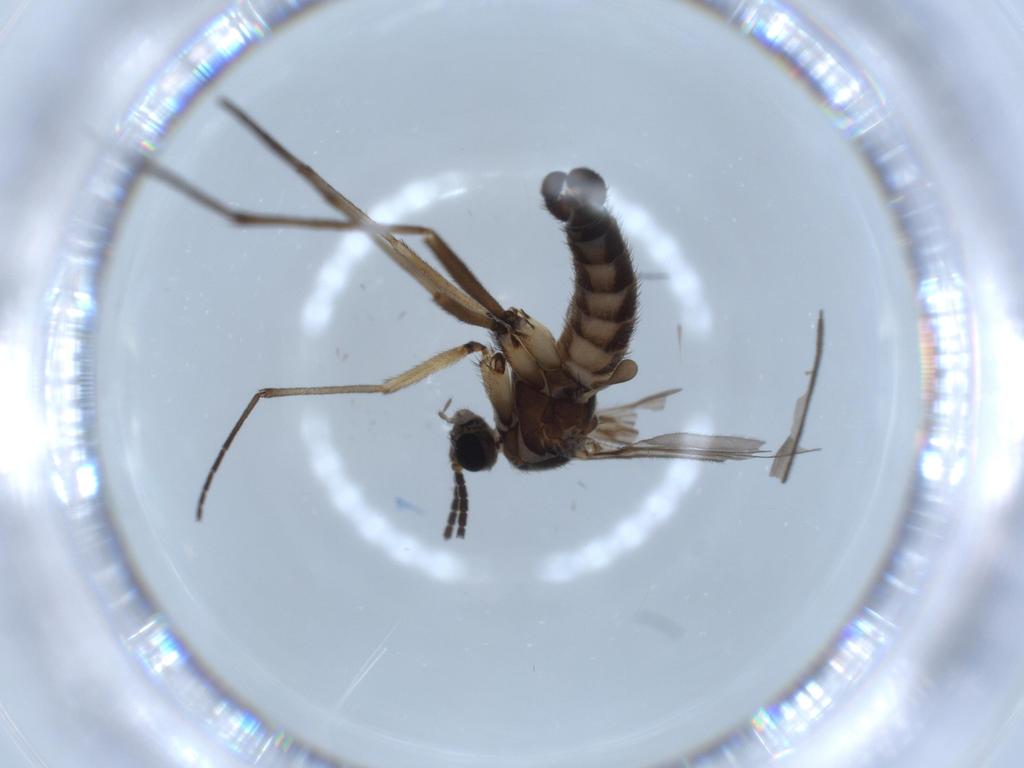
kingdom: Animalia
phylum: Arthropoda
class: Insecta
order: Diptera
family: Sciaridae
